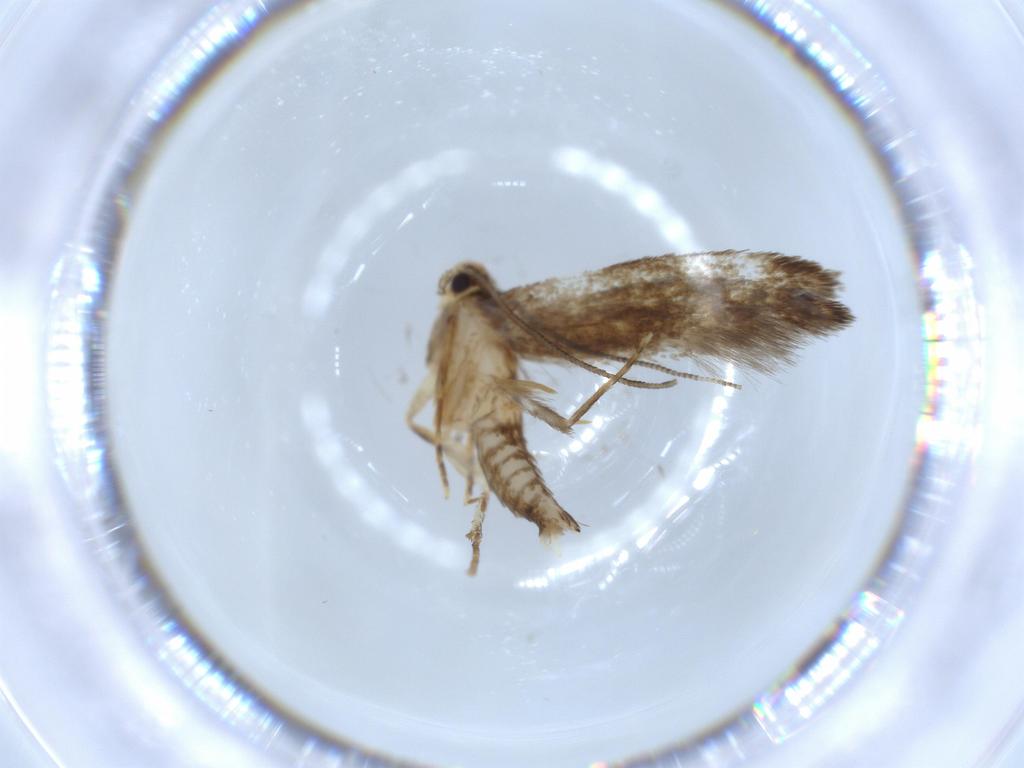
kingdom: Animalia
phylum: Arthropoda
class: Insecta
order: Lepidoptera
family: Tineidae
